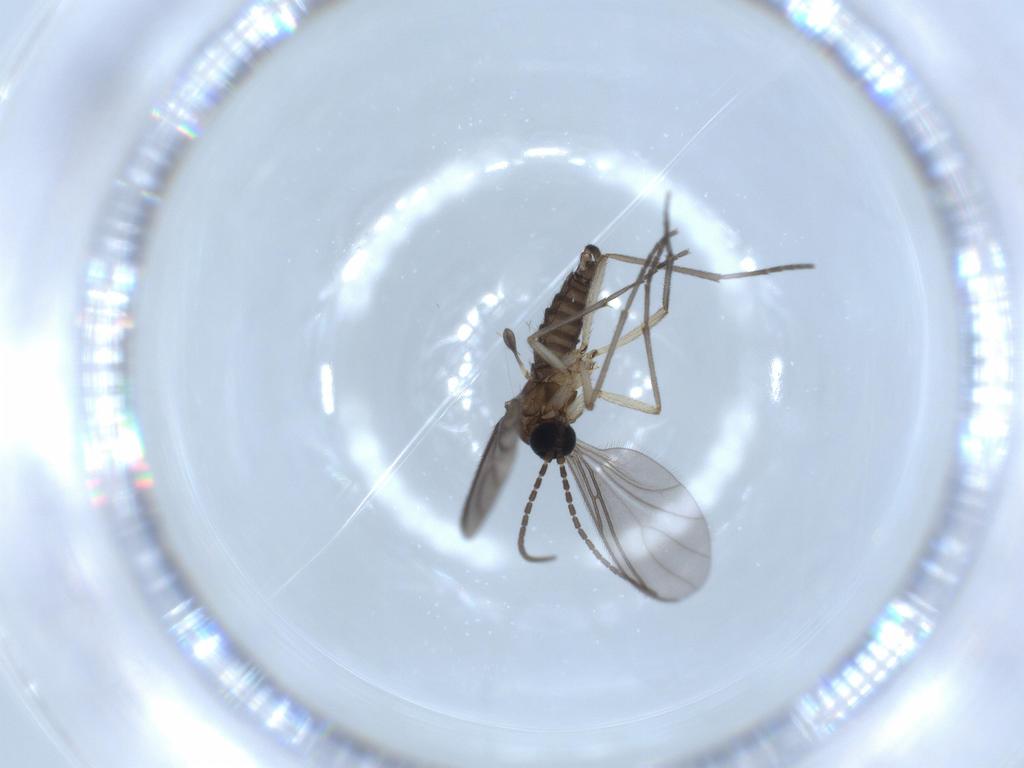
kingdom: Animalia
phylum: Arthropoda
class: Insecta
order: Diptera
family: Sciaridae
